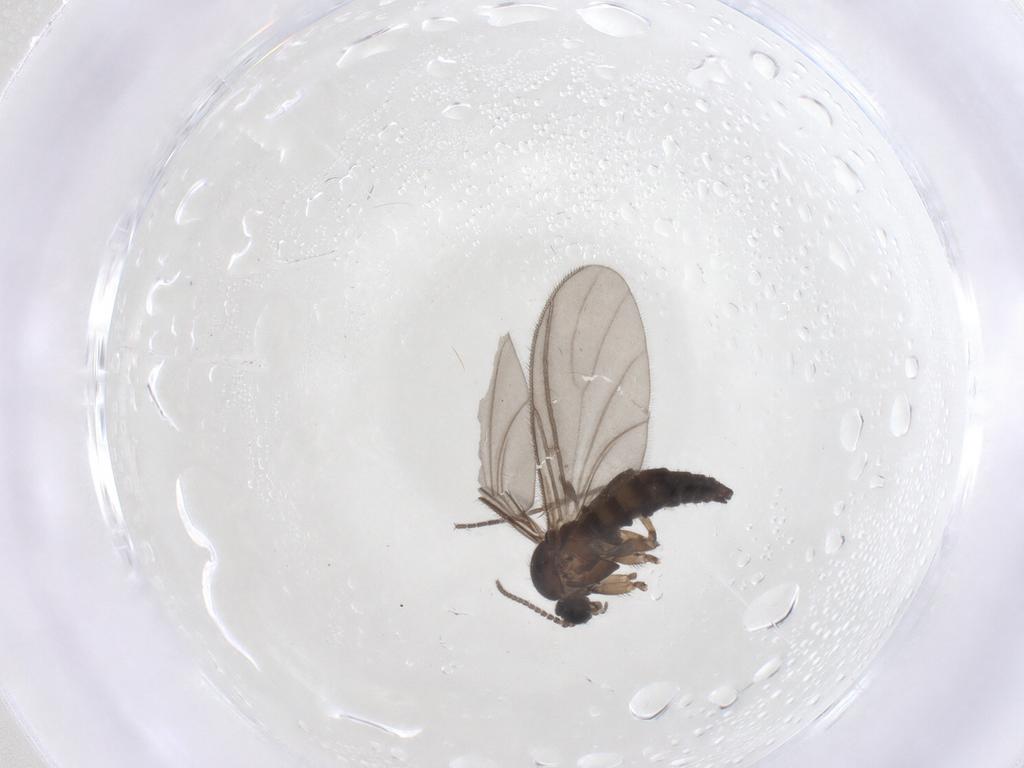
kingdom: Animalia
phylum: Arthropoda
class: Insecta
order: Diptera
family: Sciaridae
